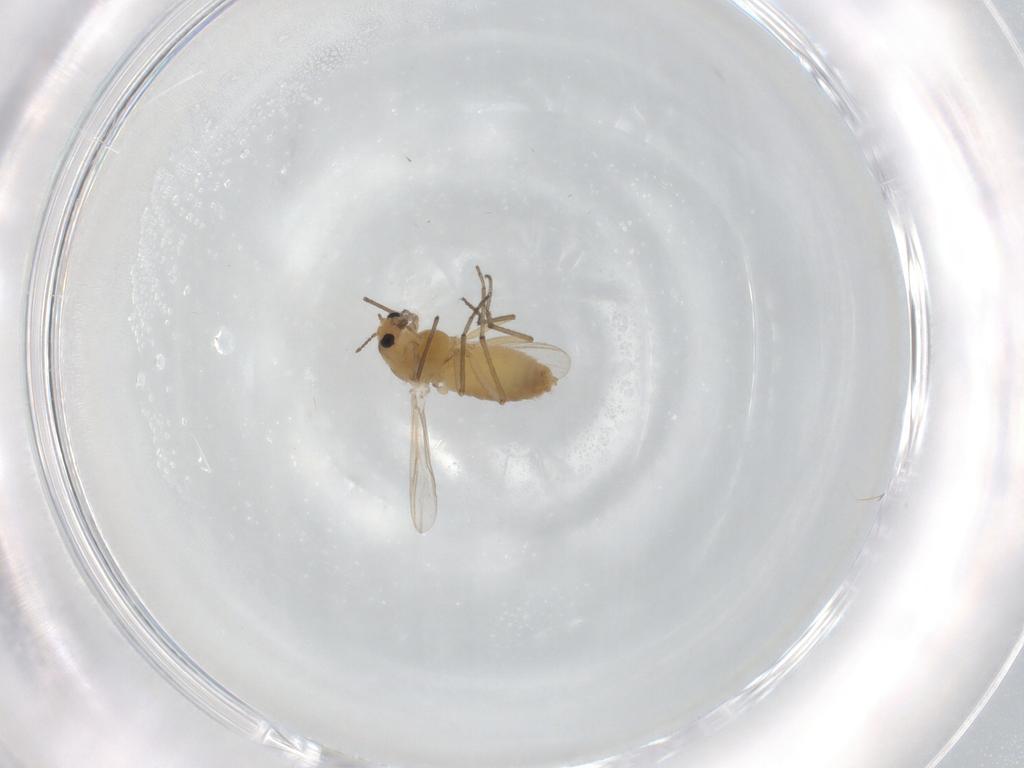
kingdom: Animalia
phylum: Arthropoda
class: Insecta
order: Diptera
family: Chironomidae
